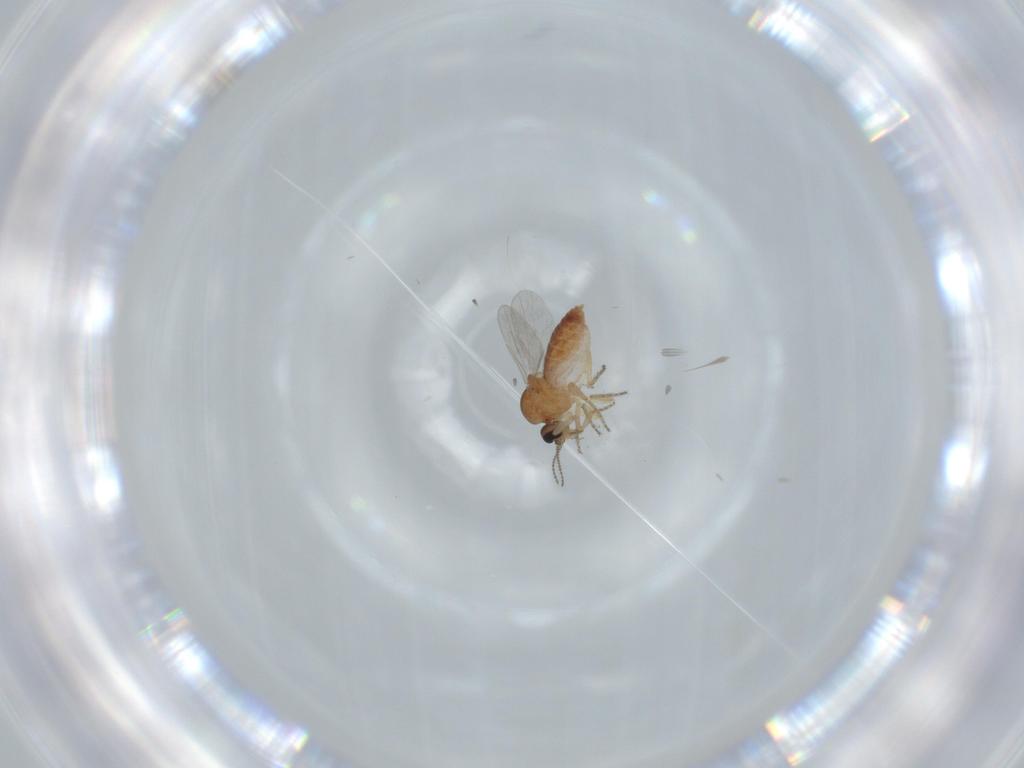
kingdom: Animalia
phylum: Arthropoda
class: Insecta
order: Diptera
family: Ceratopogonidae
